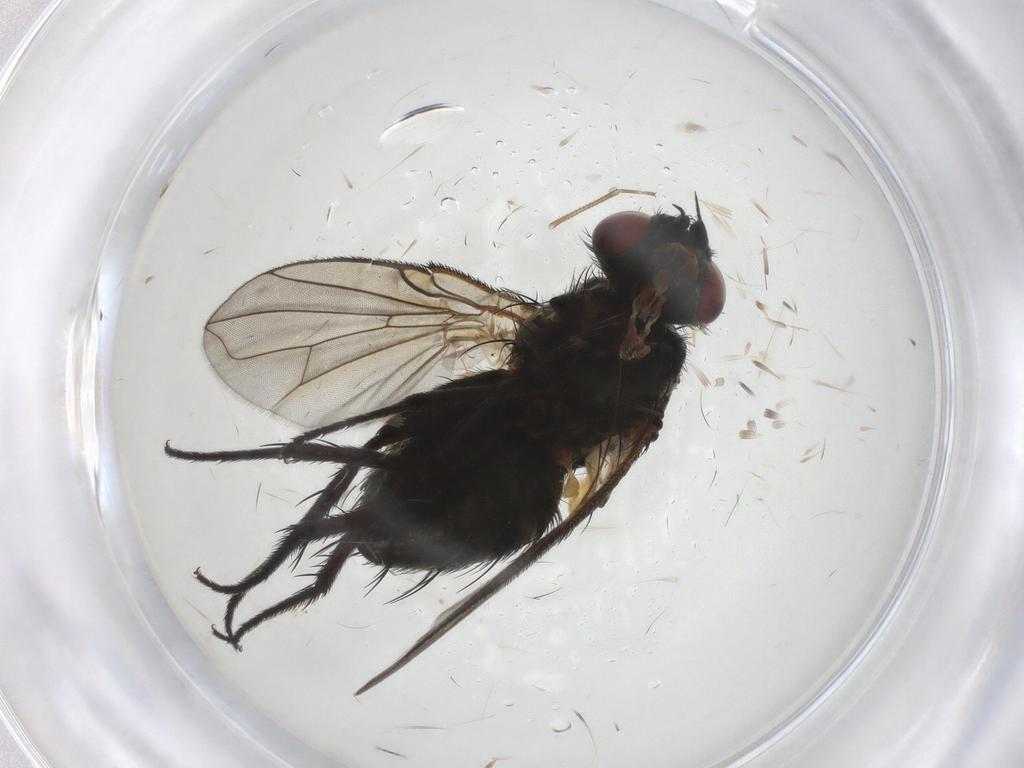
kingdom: Animalia
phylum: Arthropoda
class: Insecta
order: Diptera
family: Tachinidae
